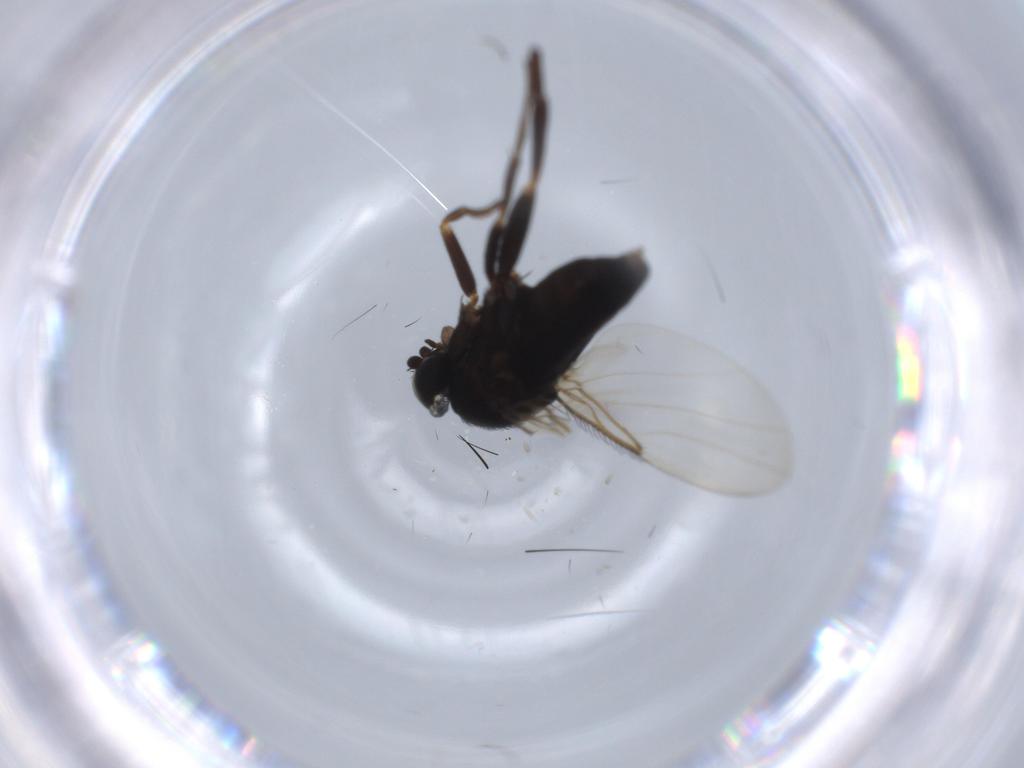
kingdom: Animalia
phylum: Arthropoda
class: Insecta
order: Diptera
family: Chironomidae
